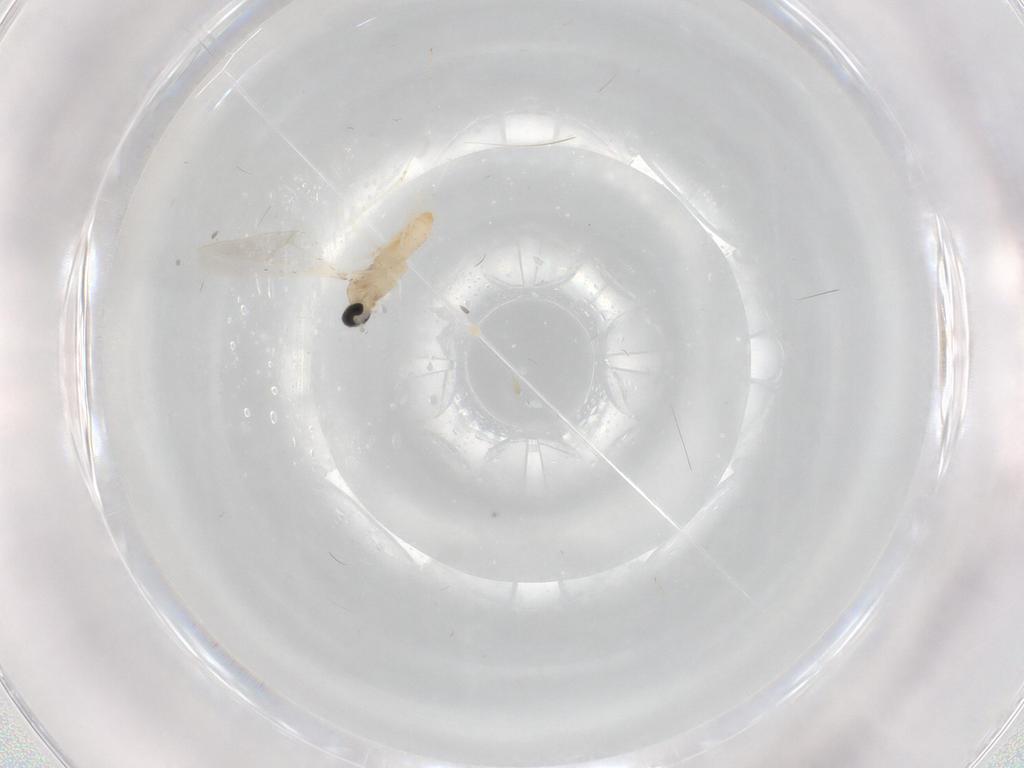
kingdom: Animalia
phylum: Arthropoda
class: Insecta
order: Diptera
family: Cecidomyiidae
